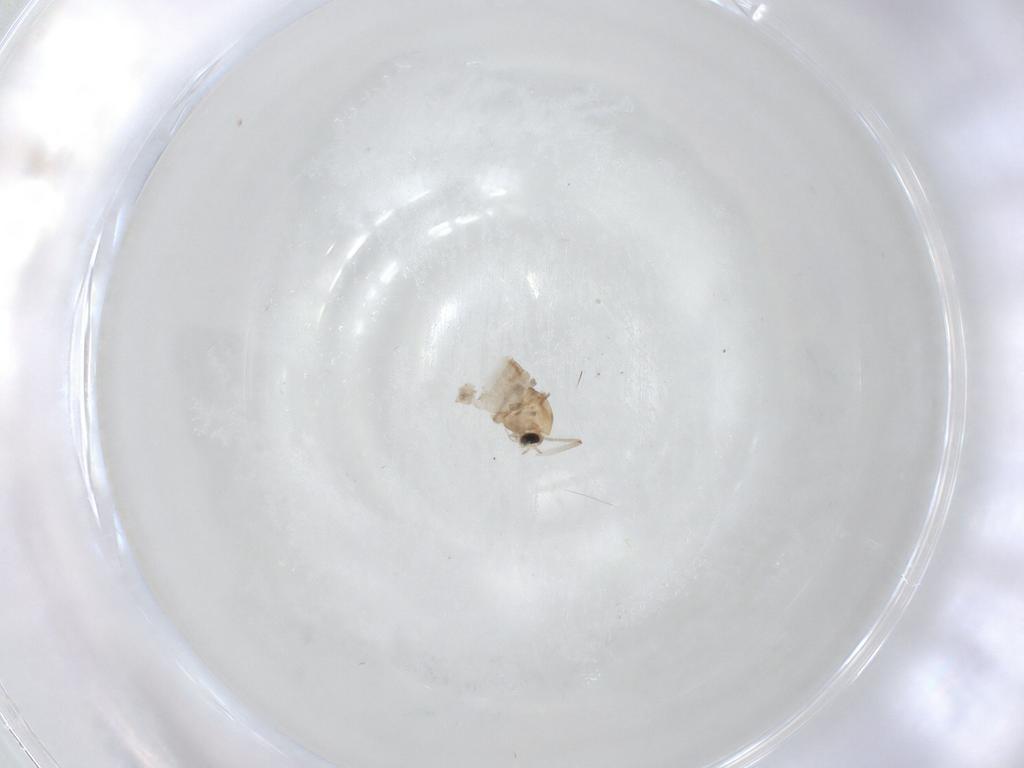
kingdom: Animalia
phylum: Arthropoda
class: Insecta
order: Diptera
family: Chironomidae
